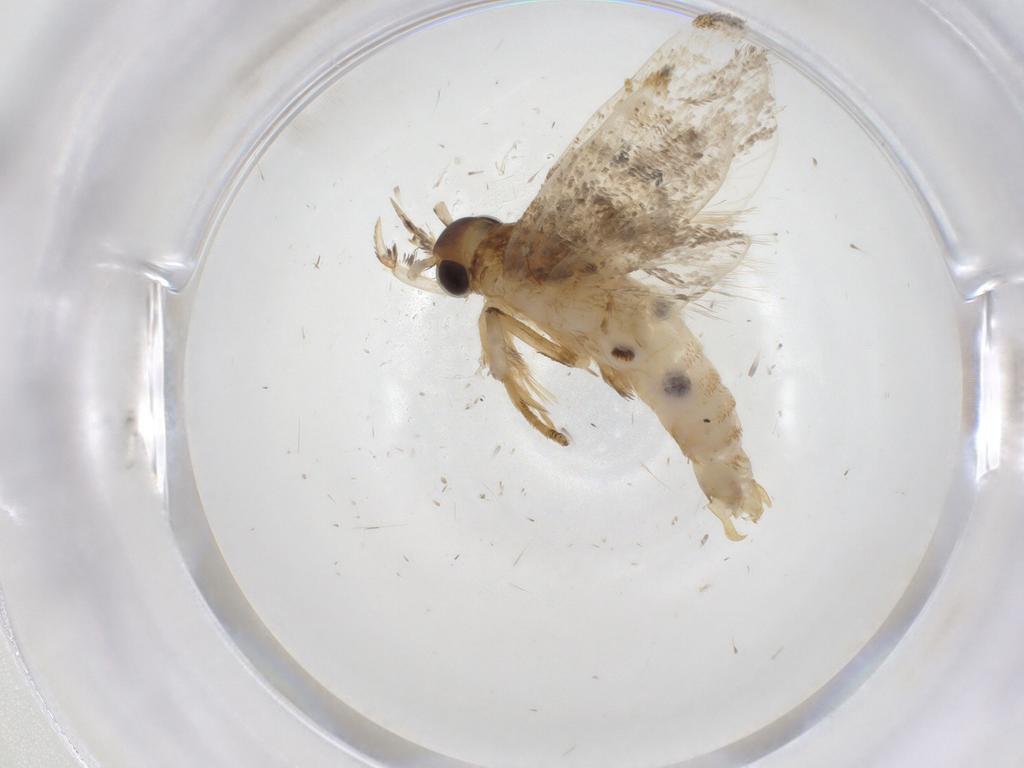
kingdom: Animalia
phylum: Arthropoda
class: Insecta
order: Lepidoptera
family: Lecithoceridae
